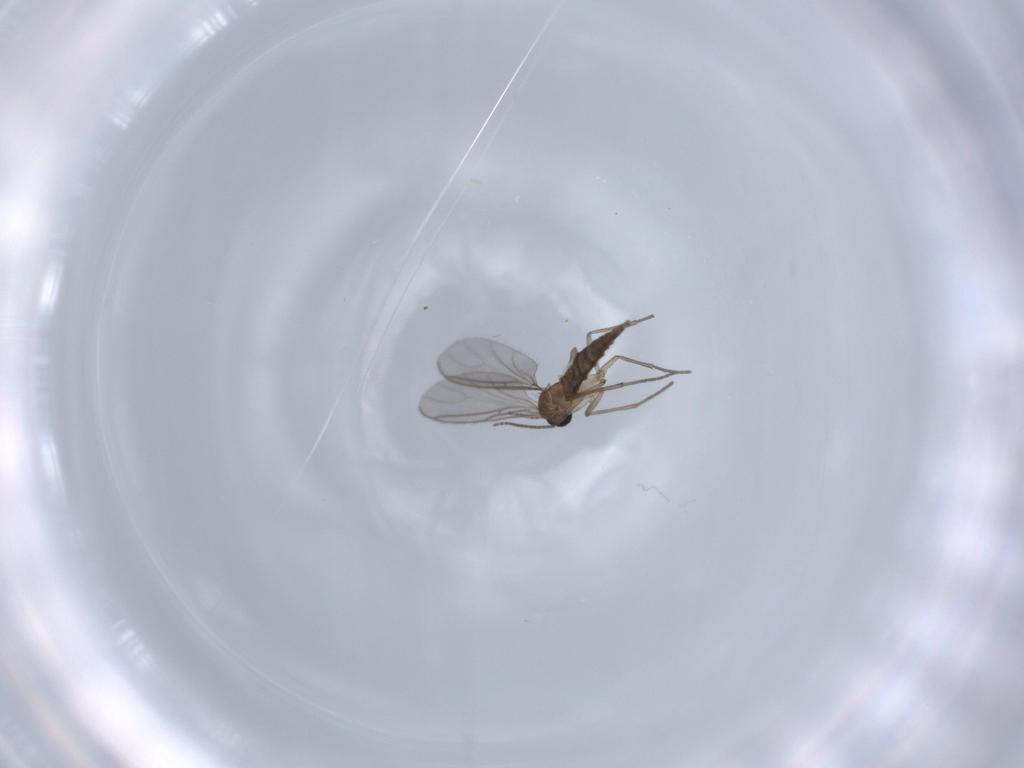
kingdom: Animalia
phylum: Arthropoda
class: Insecta
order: Diptera
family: Sciaridae
